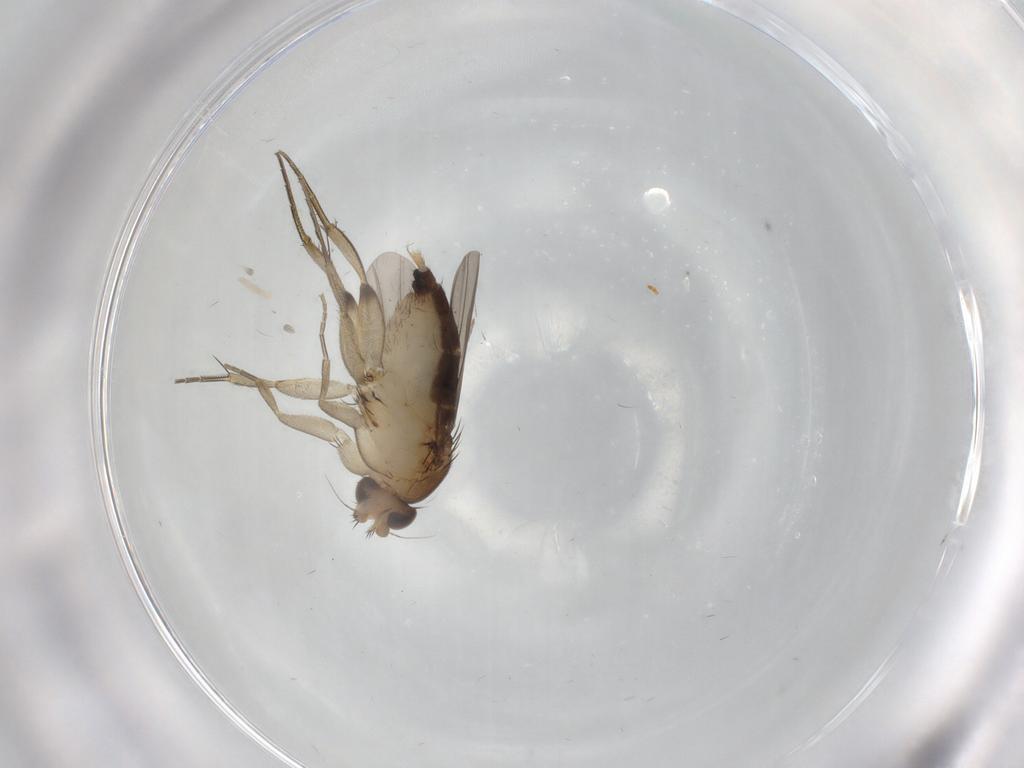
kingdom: Animalia
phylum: Arthropoda
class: Insecta
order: Diptera
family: Phoridae
